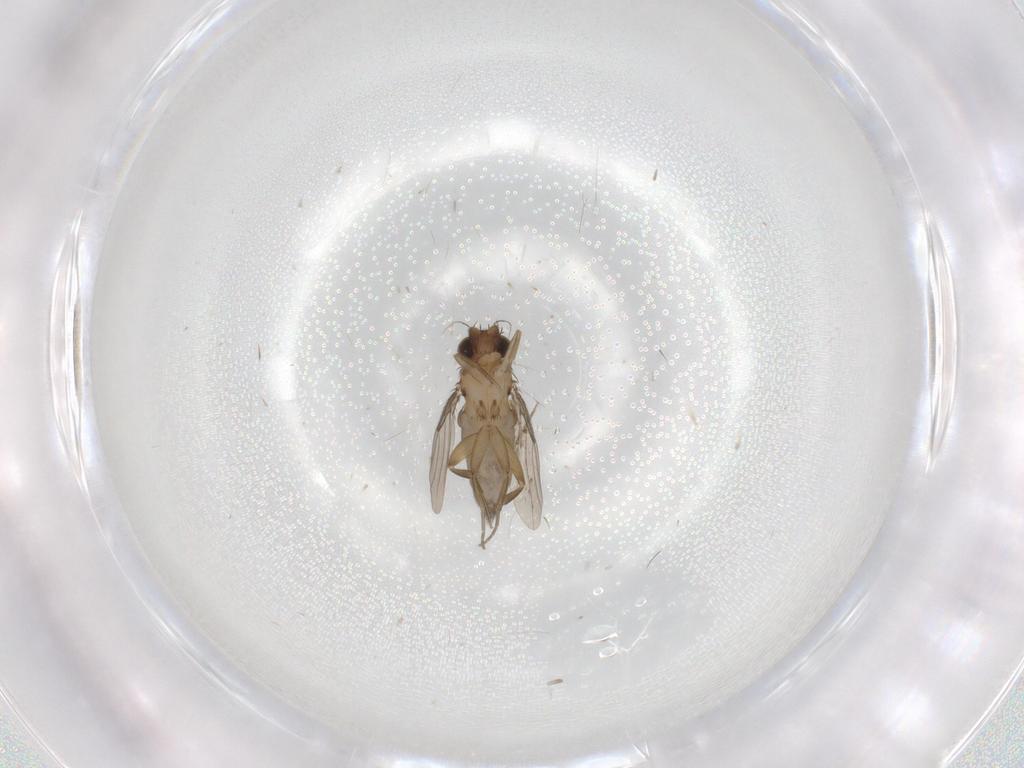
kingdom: Animalia
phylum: Arthropoda
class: Insecta
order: Diptera
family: Phoridae
